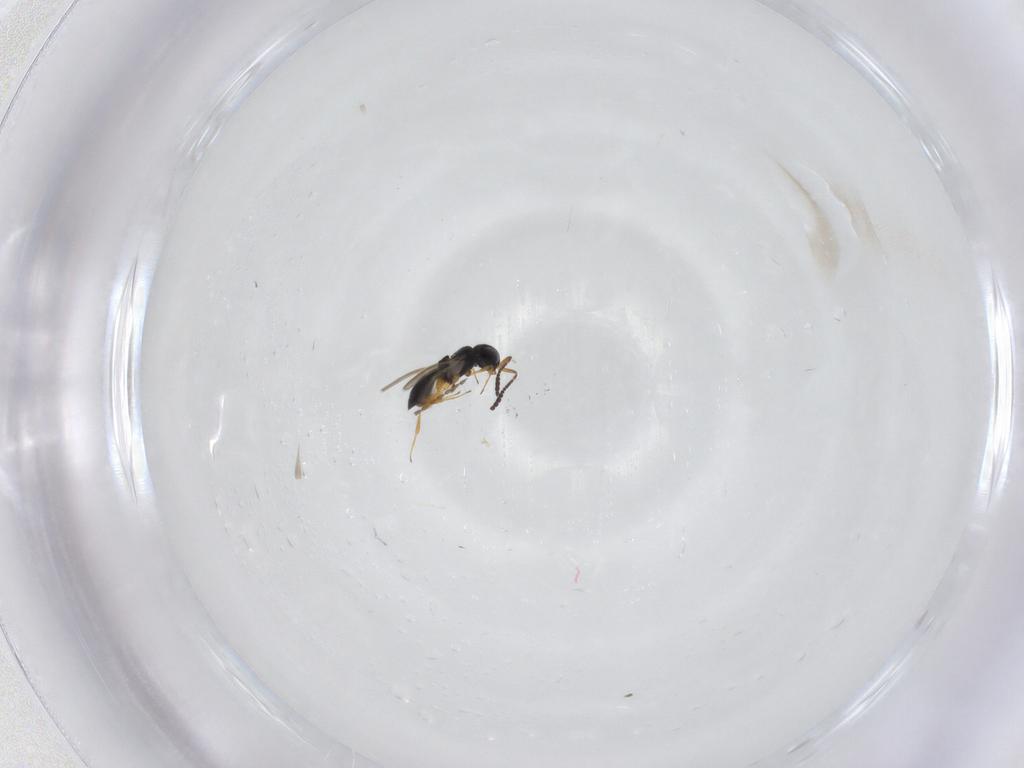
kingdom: Animalia
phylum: Arthropoda
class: Insecta
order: Hymenoptera
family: Scelionidae
